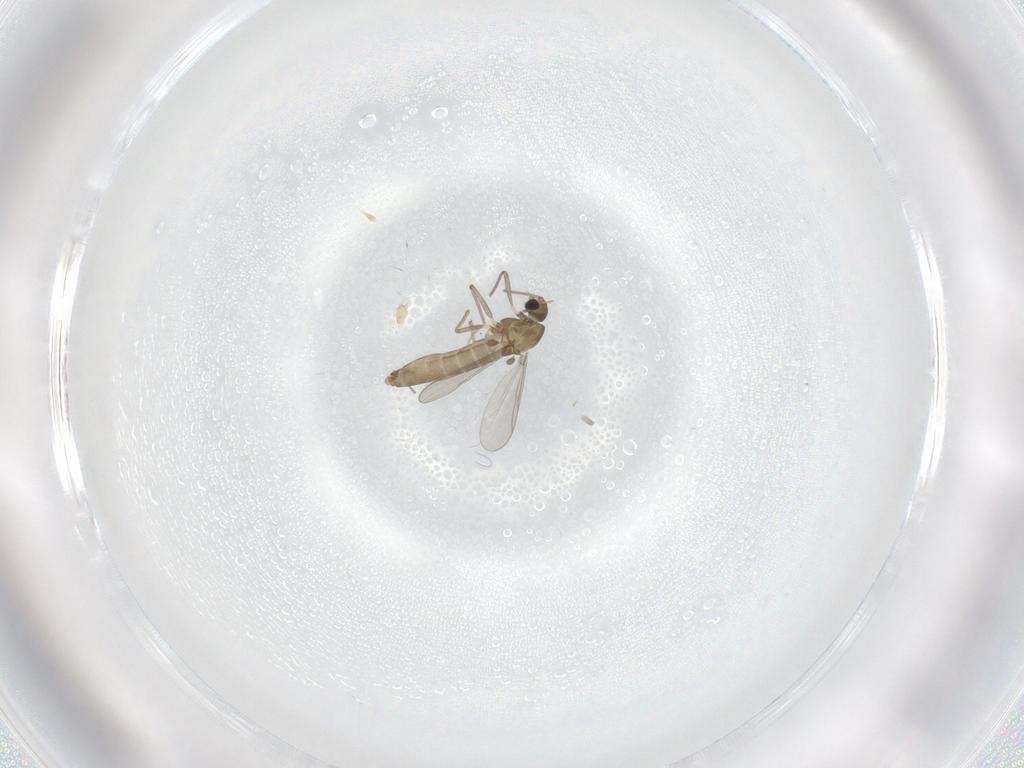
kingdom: Animalia
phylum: Arthropoda
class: Insecta
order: Diptera
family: Chironomidae
